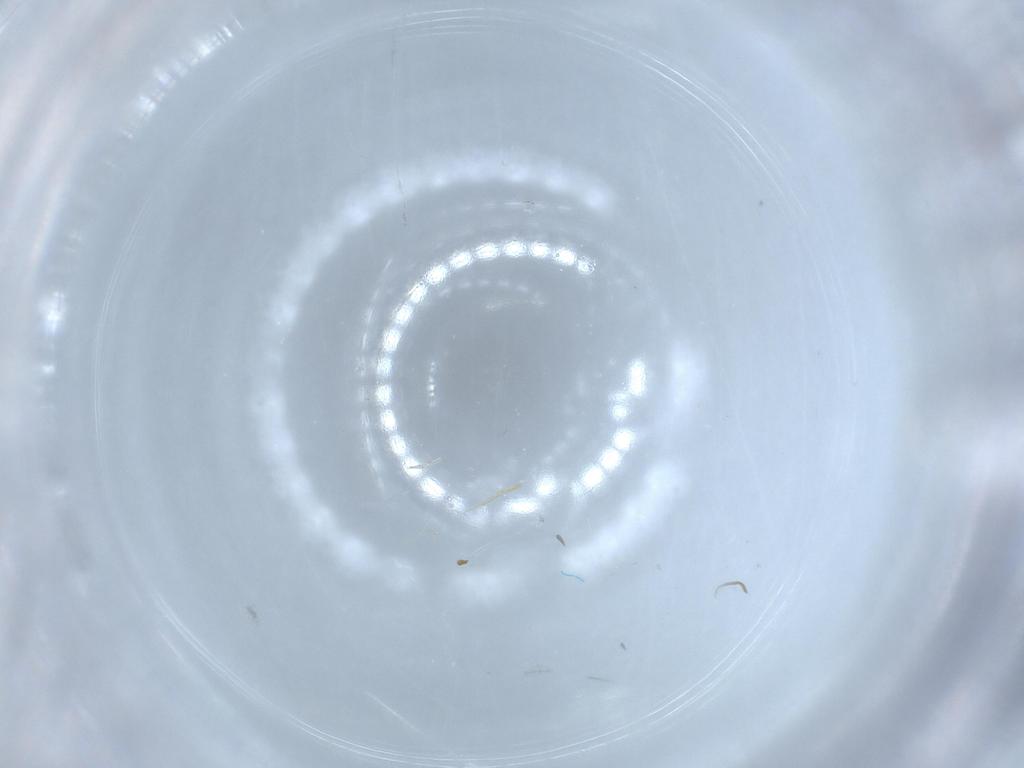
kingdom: Animalia
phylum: Arthropoda
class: Insecta
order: Diptera
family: Cecidomyiidae
